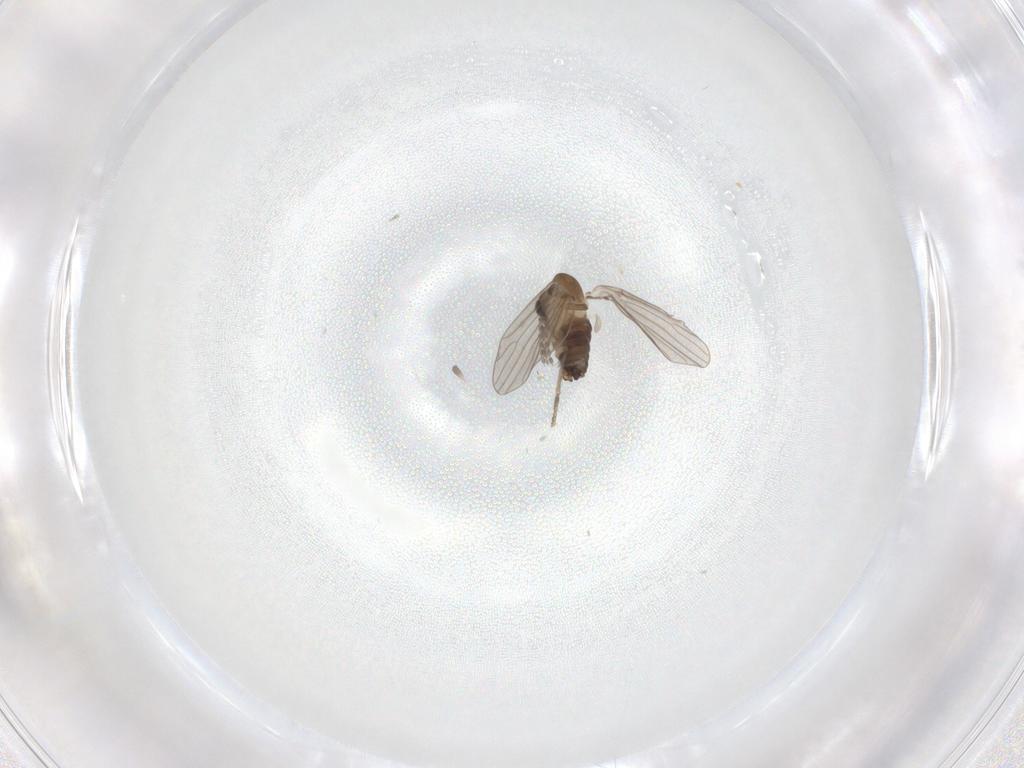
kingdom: Animalia
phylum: Arthropoda
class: Insecta
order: Diptera
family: Psychodidae
